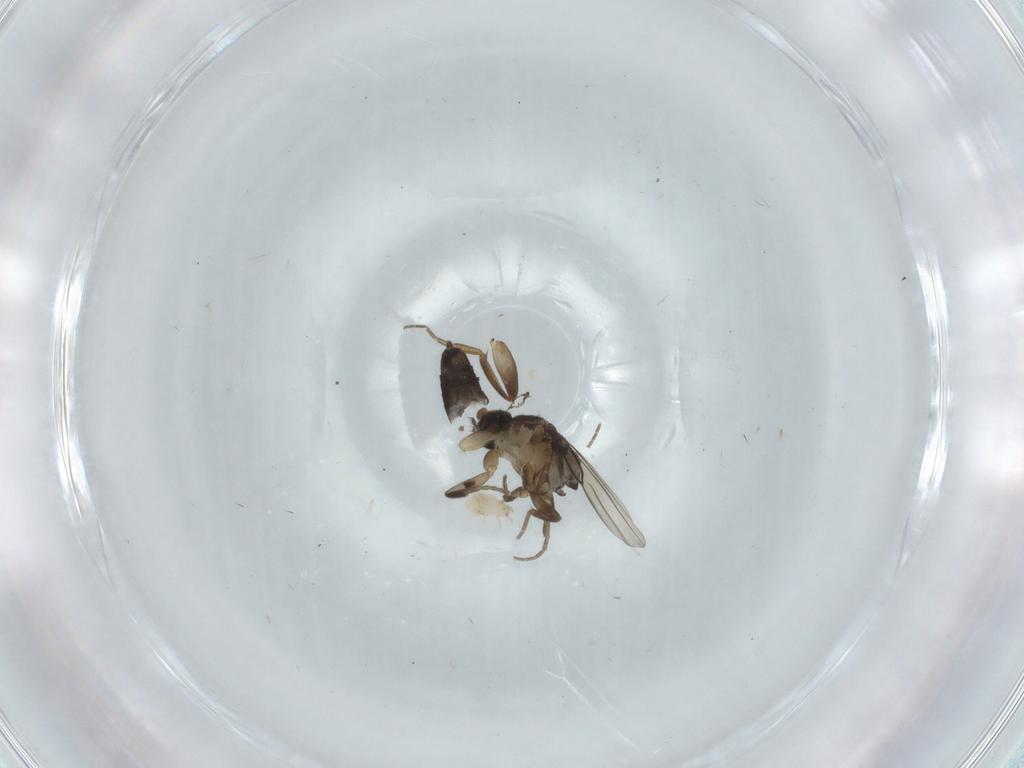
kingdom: Animalia
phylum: Arthropoda
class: Insecta
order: Diptera
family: Phoridae
